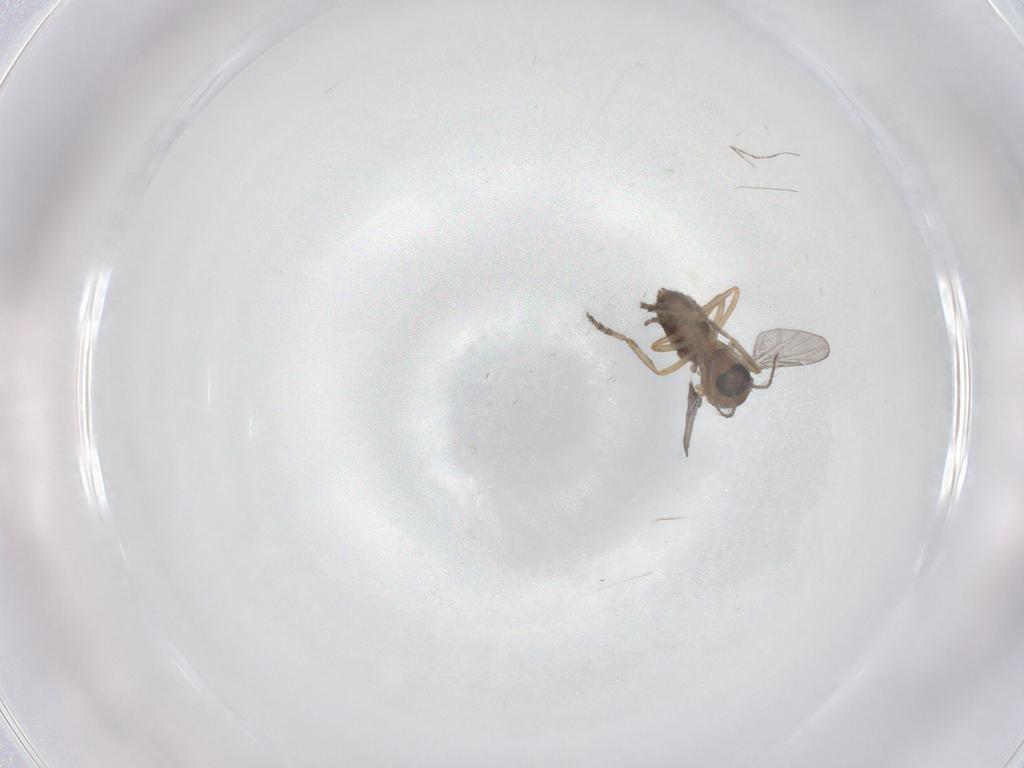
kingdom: Animalia
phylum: Arthropoda
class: Insecta
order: Diptera
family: Ceratopogonidae
